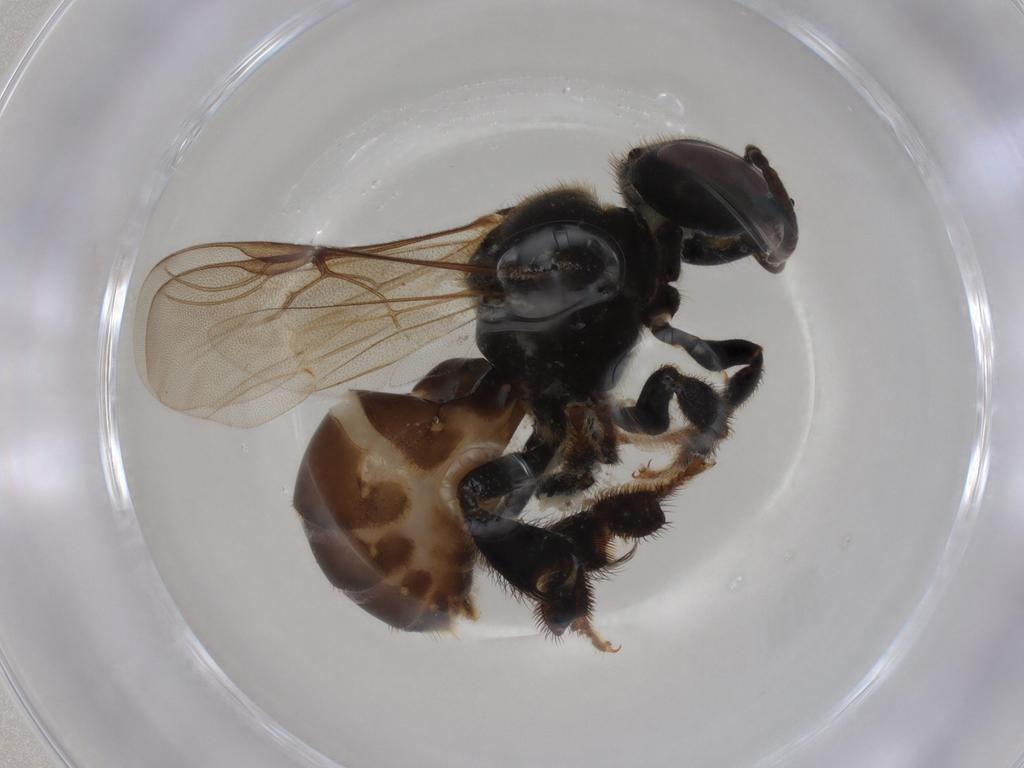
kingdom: Animalia
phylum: Arthropoda
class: Insecta
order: Hymenoptera
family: Apidae
